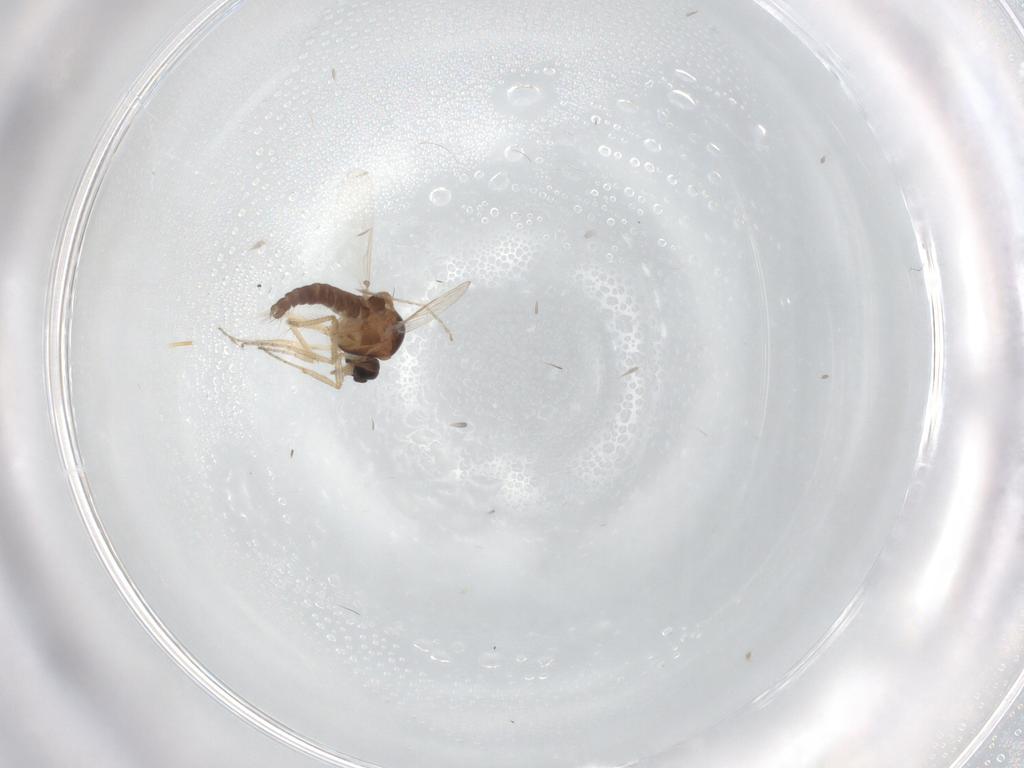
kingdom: Animalia
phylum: Arthropoda
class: Insecta
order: Diptera
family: Ceratopogonidae
